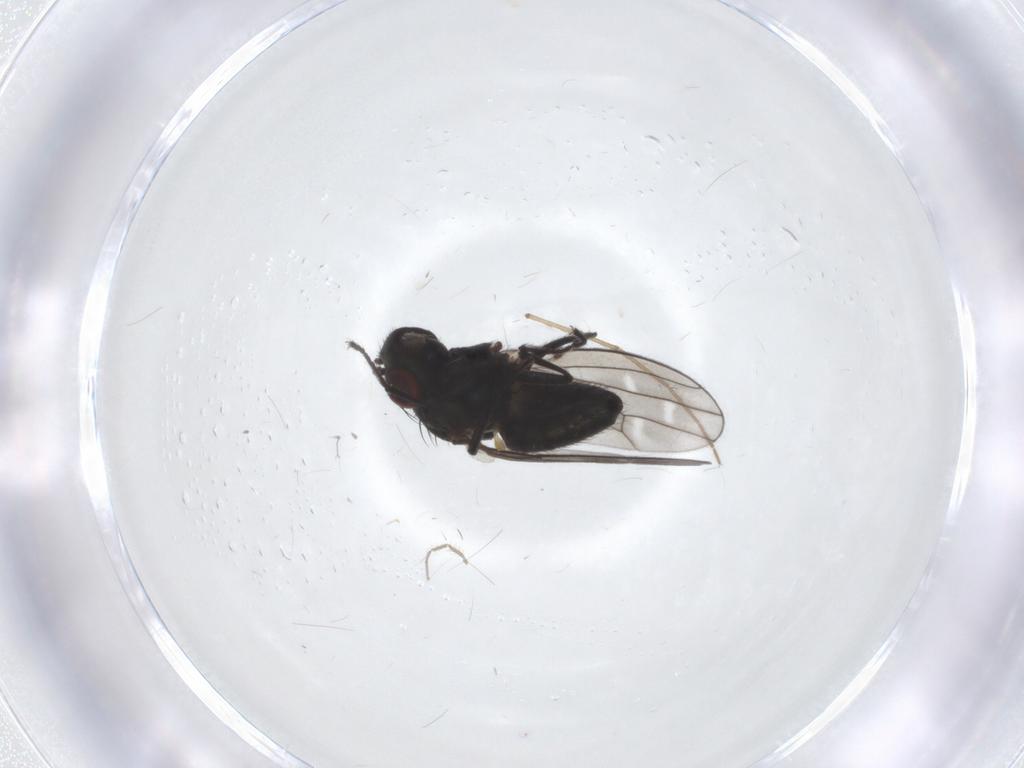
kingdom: Animalia
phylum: Arthropoda
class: Insecta
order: Diptera
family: Ephydridae
